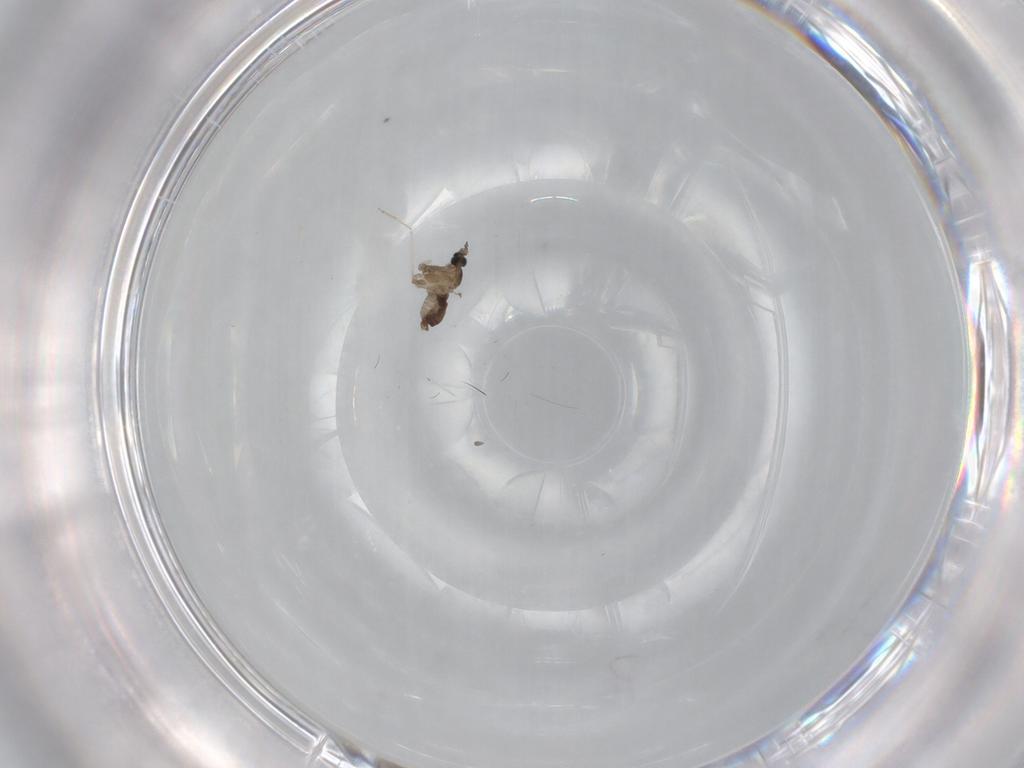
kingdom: Animalia
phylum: Arthropoda
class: Insecta
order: Diptera
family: Cecidomyiidae
